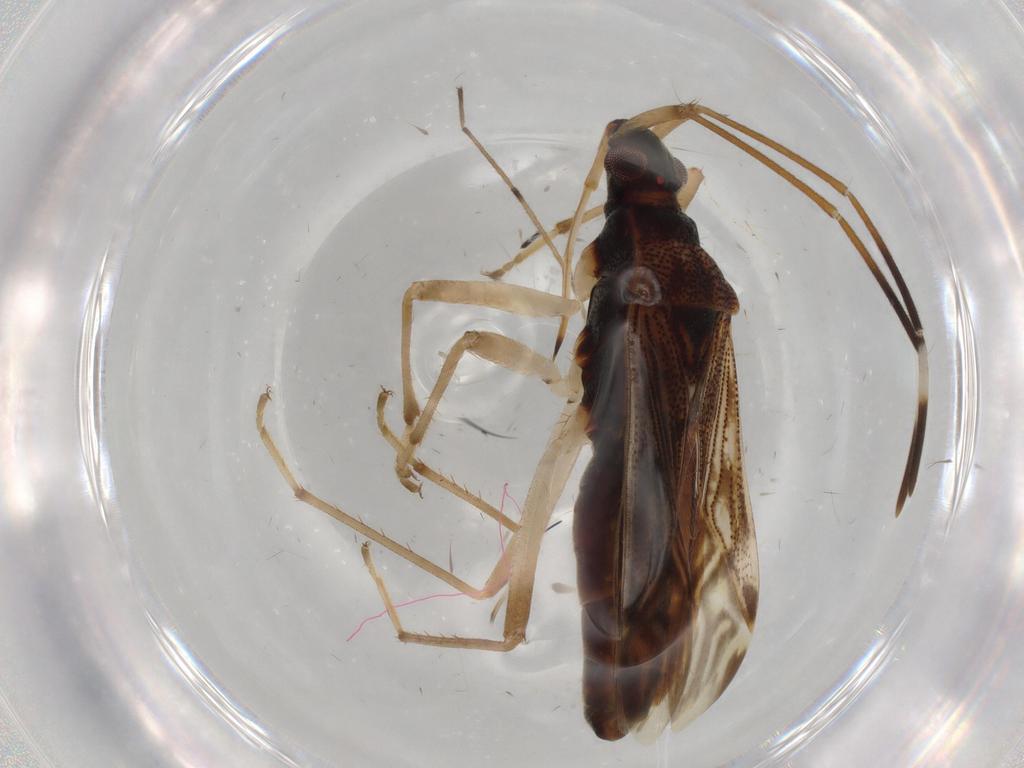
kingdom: Animalia
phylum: Arthropoda
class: Insecta
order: Hemiptera
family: Rhyparochromidae
